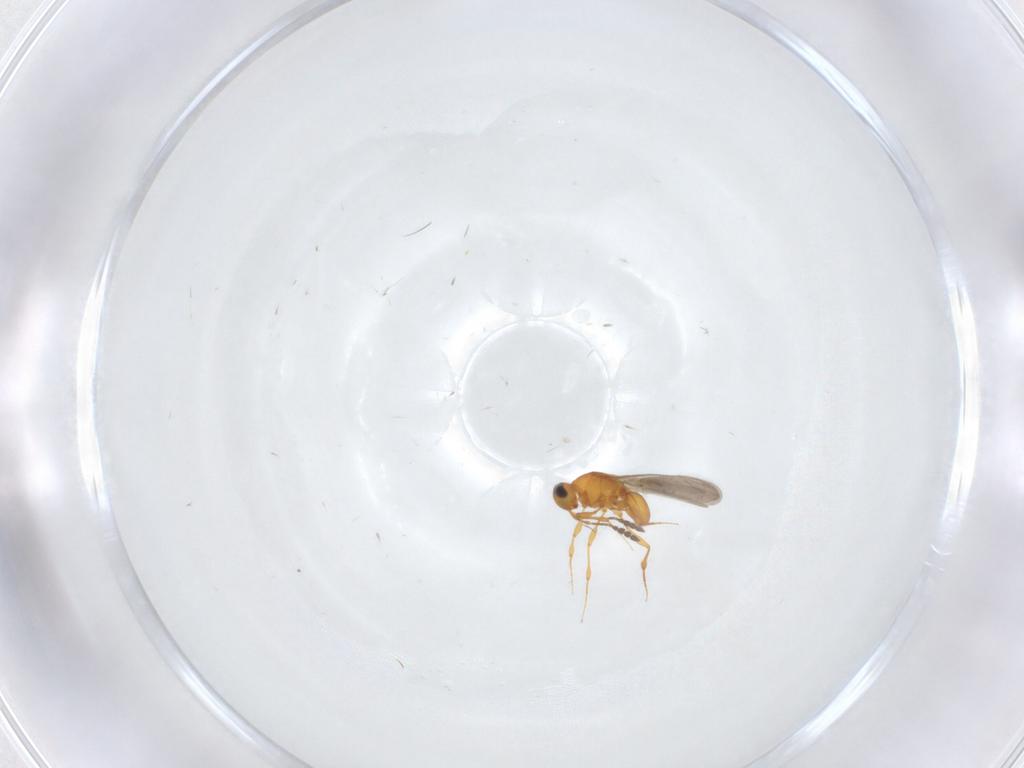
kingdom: Animalia
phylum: Arthropoda
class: Insecta
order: Hymenoptera
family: Platygastridae
